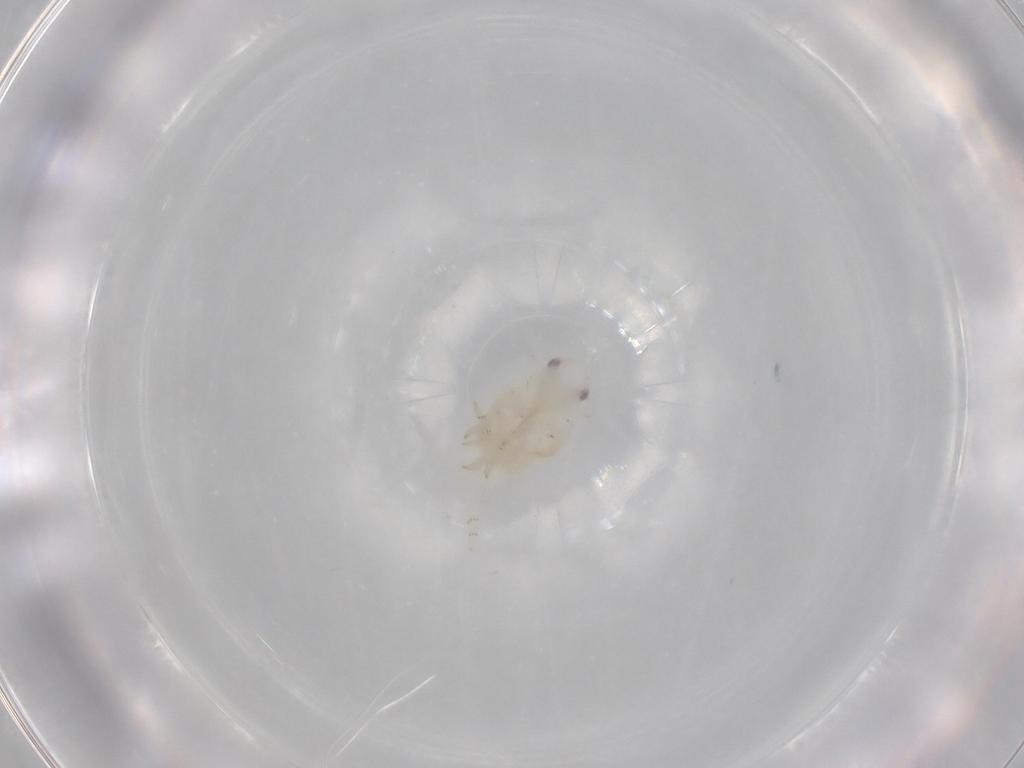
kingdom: Animalia
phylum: Arthropoda
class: Insecta
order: Hemiptera
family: Flatidae
